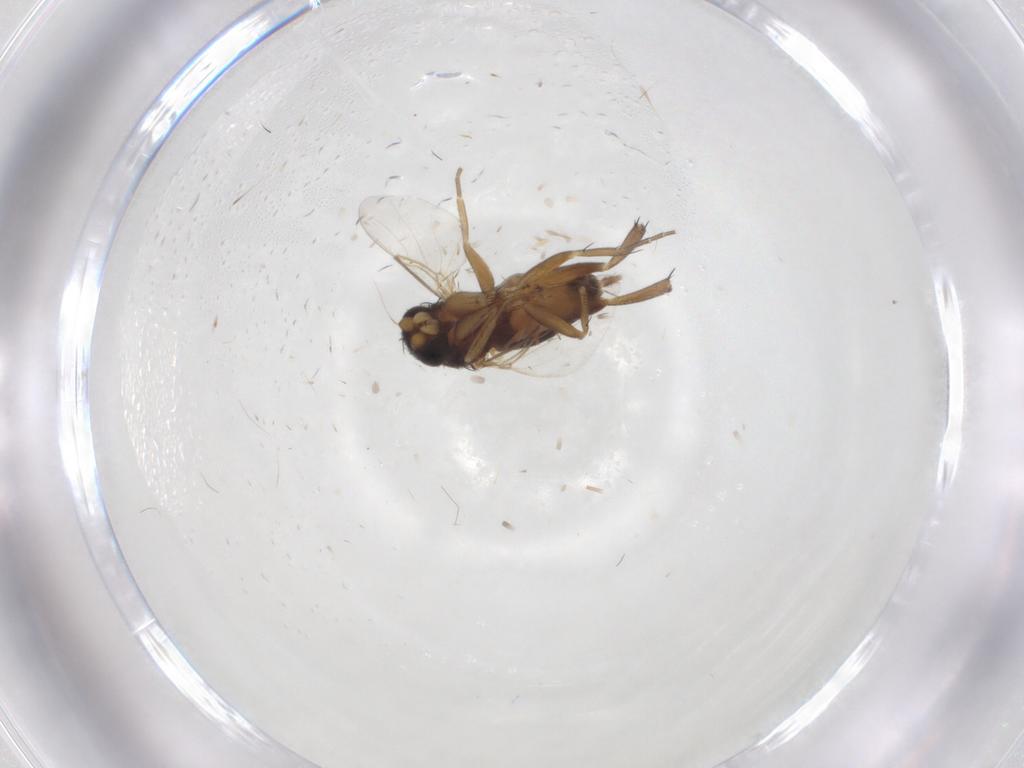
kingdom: Animalia
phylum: Arthropoda
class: Insecta
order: Diptera
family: Phoridae
